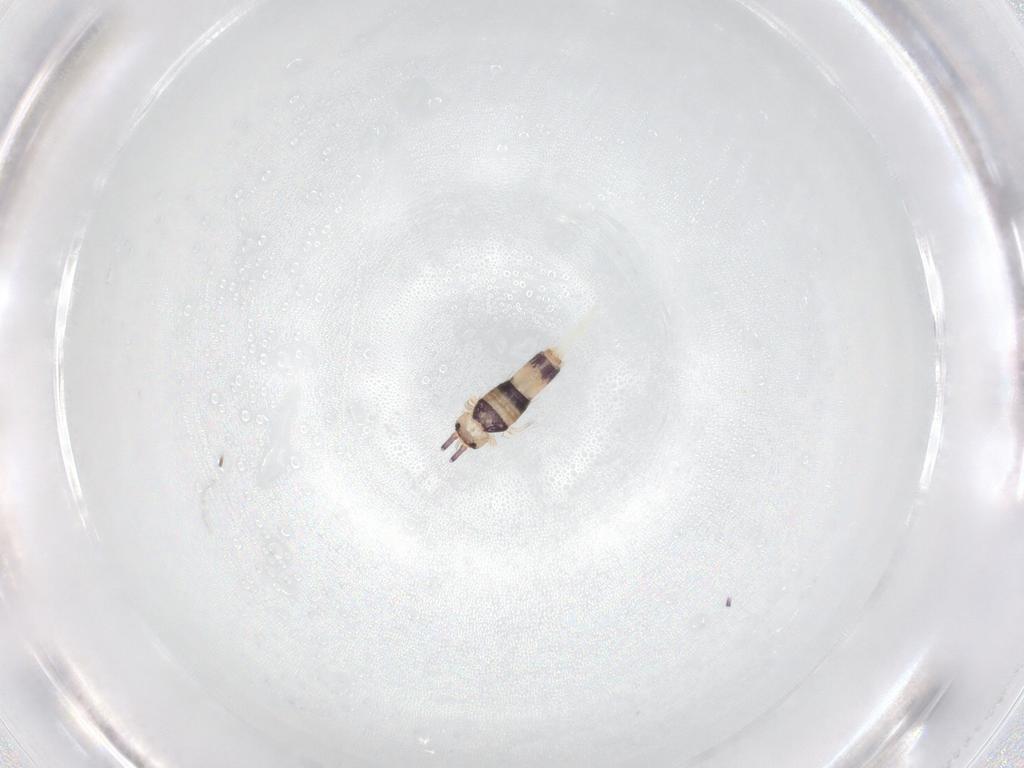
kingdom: Animalia
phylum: Arthropoda
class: Collembola
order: Entomobryomorpha
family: Entomobryidae
